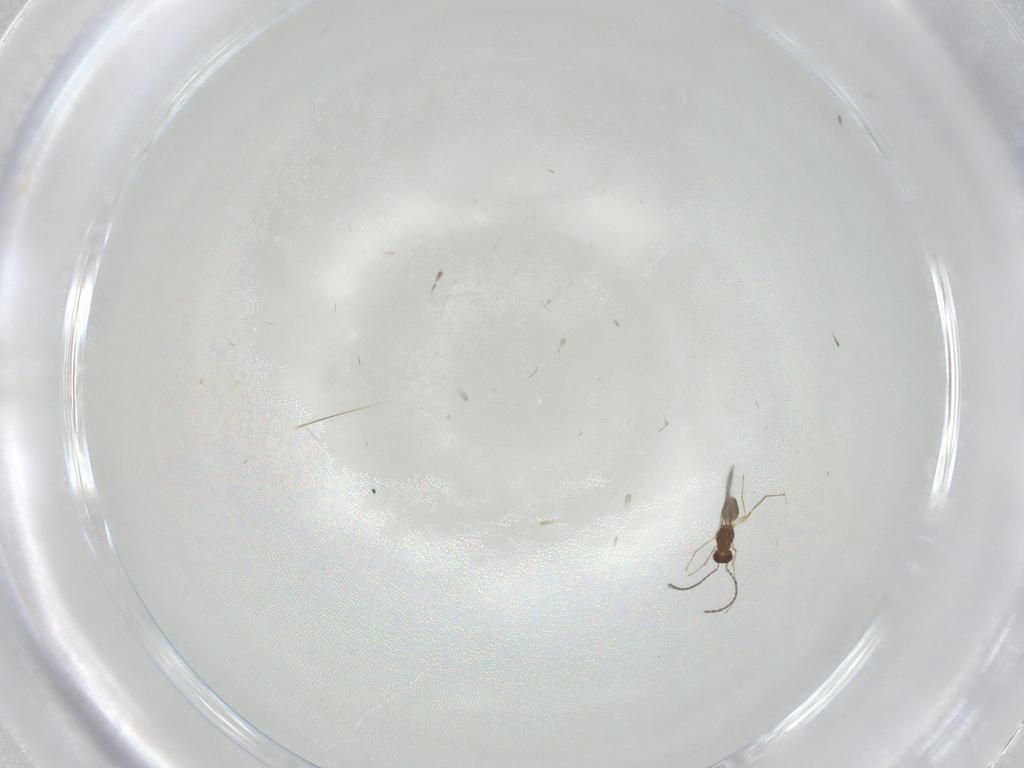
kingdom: Animalia
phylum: Arthropoda
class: Insecta
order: Hymenoptera
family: Mymaridae
